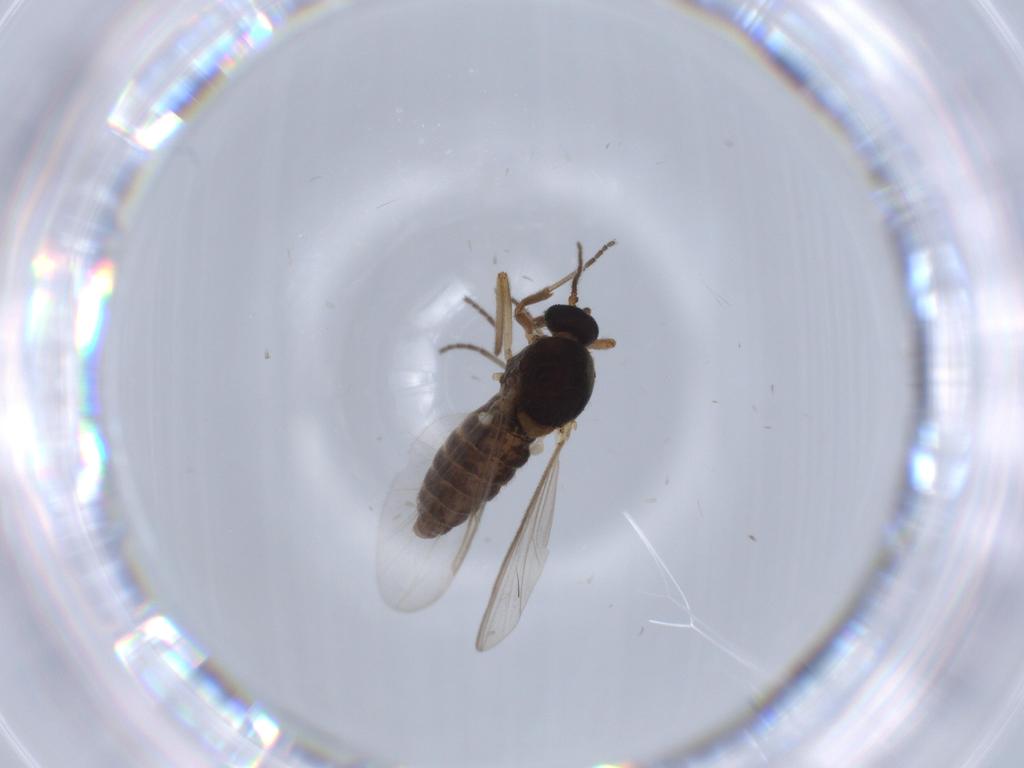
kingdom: Animalia
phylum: Arthropoda
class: Insecta
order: Diptera
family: Ceratopogonidae
